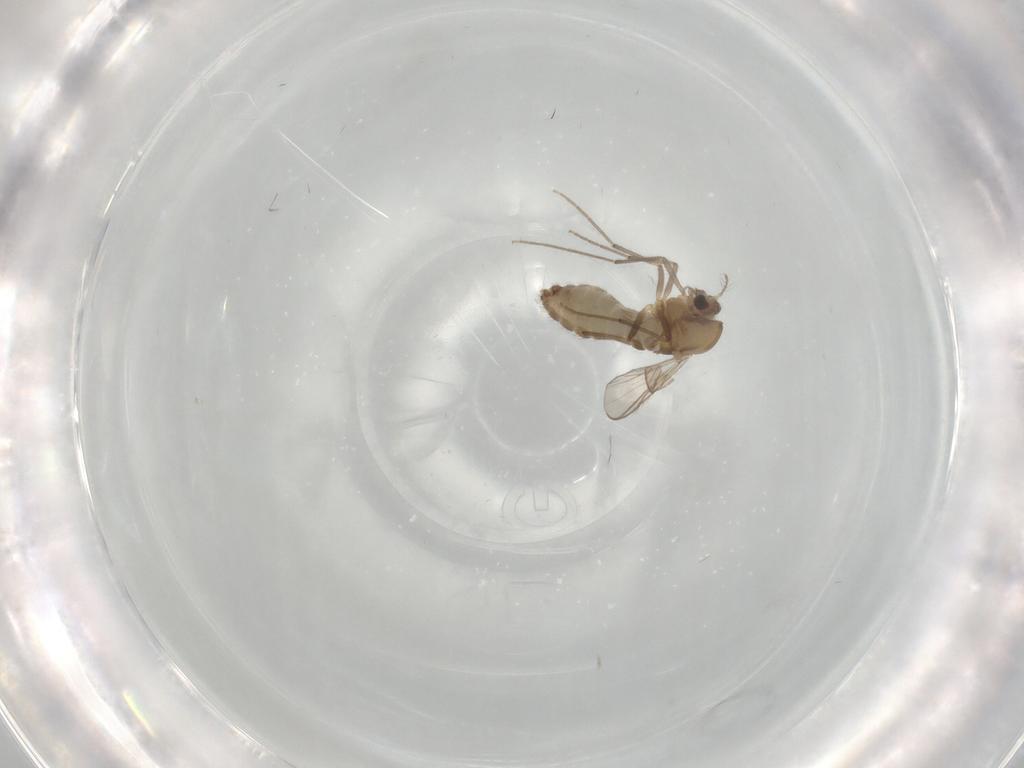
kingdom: Animalia
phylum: Arthropoda
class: Insecta
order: Diptera
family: Chironomidae
